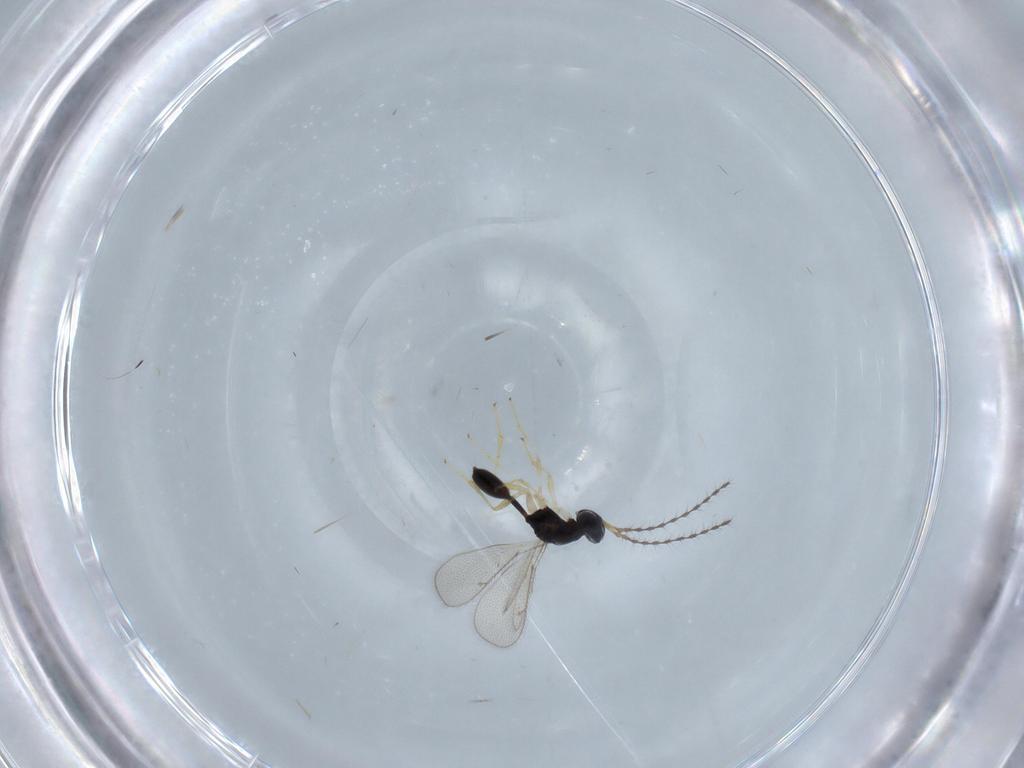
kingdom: Animalia
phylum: Arthropoda
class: Insecta
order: Hymenoptera
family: Diparidae
